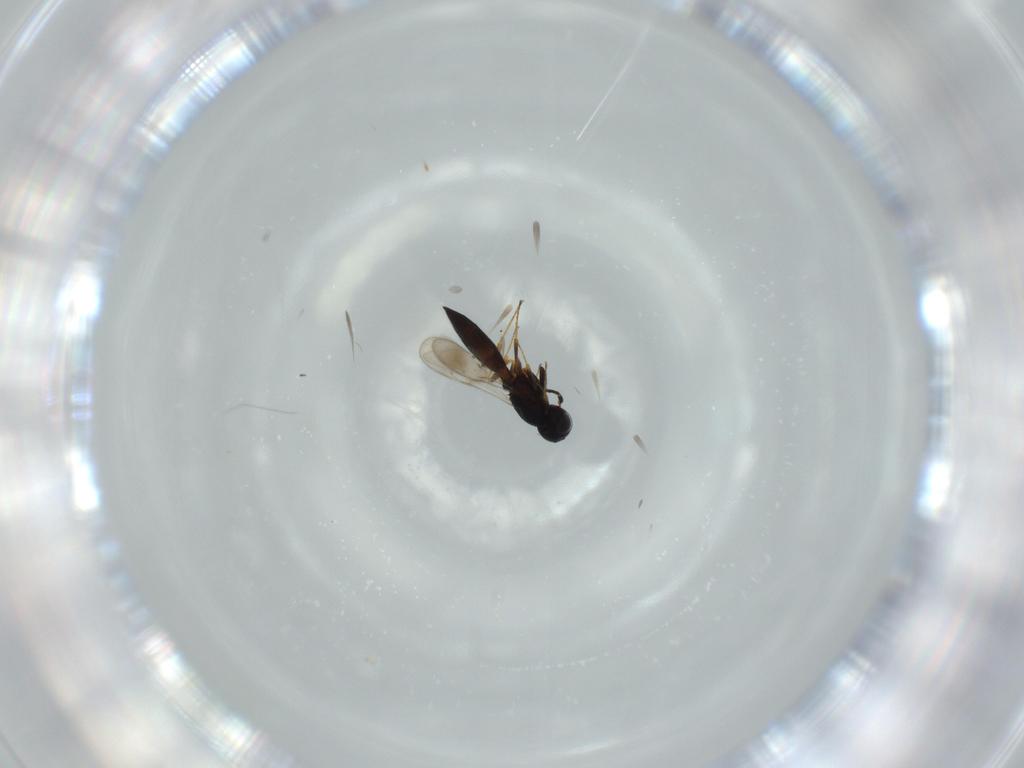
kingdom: Animalia
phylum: Arthropoda
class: Insecta
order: Hymenoptera
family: Formicidae
